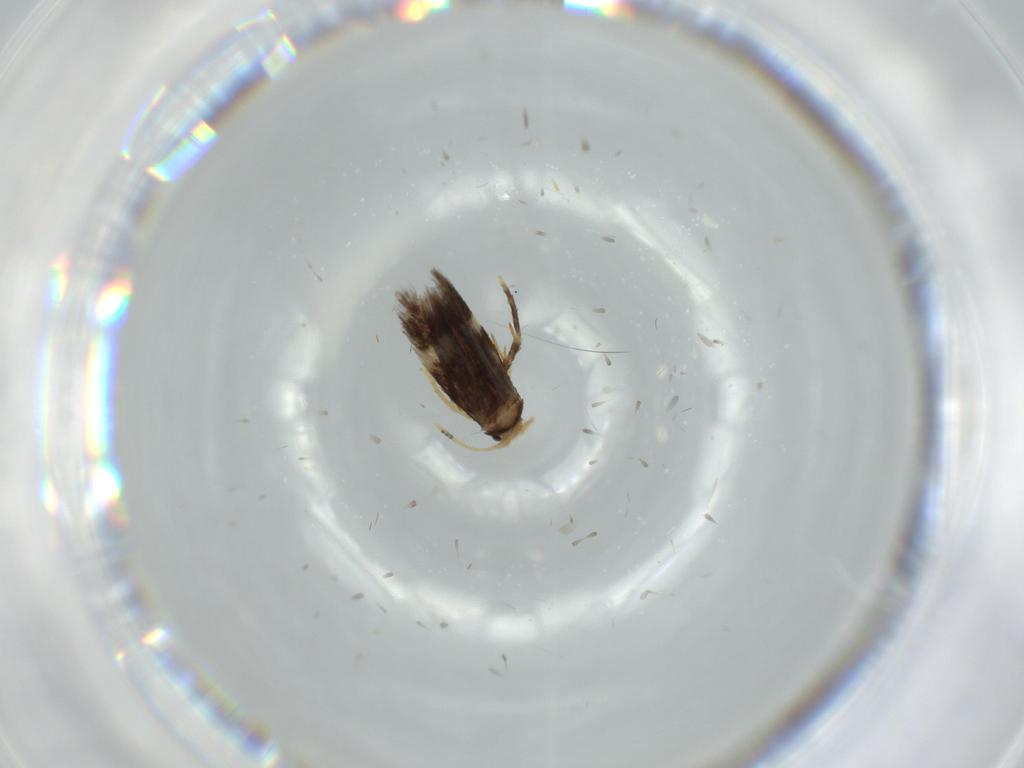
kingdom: Animalia
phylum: Arthropoda
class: Insecta
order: Lepidoptera
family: Nepticulidae
